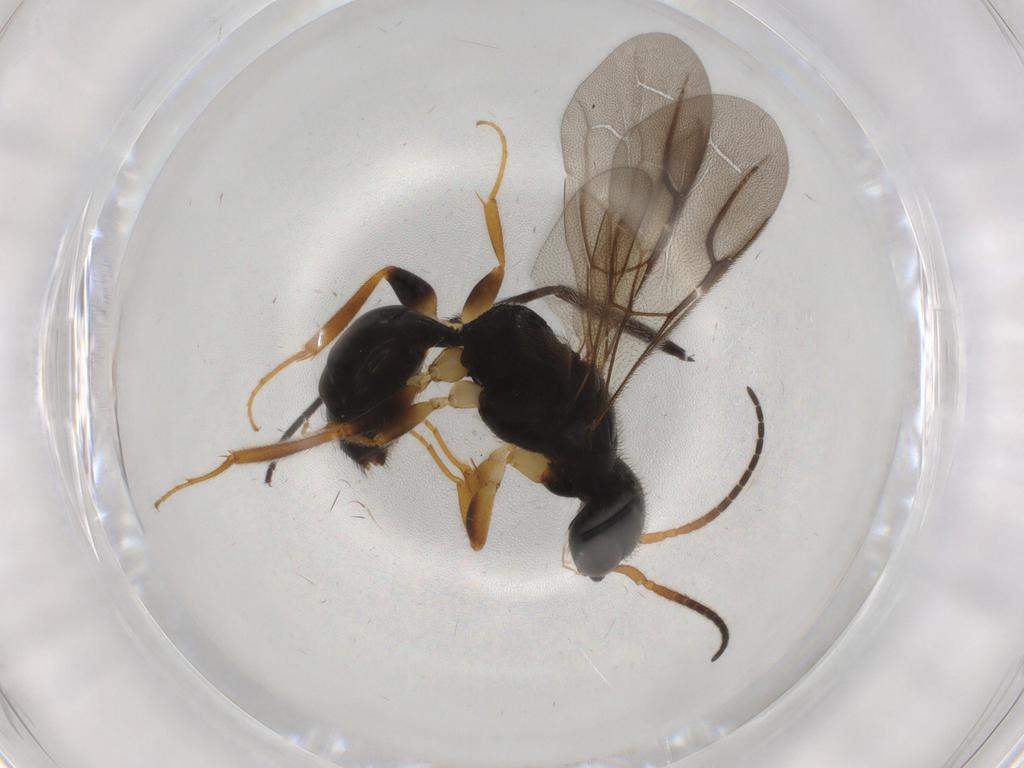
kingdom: Animalia
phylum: Arthropoda
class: Insecta
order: Hymenoptera
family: Bethylidae
